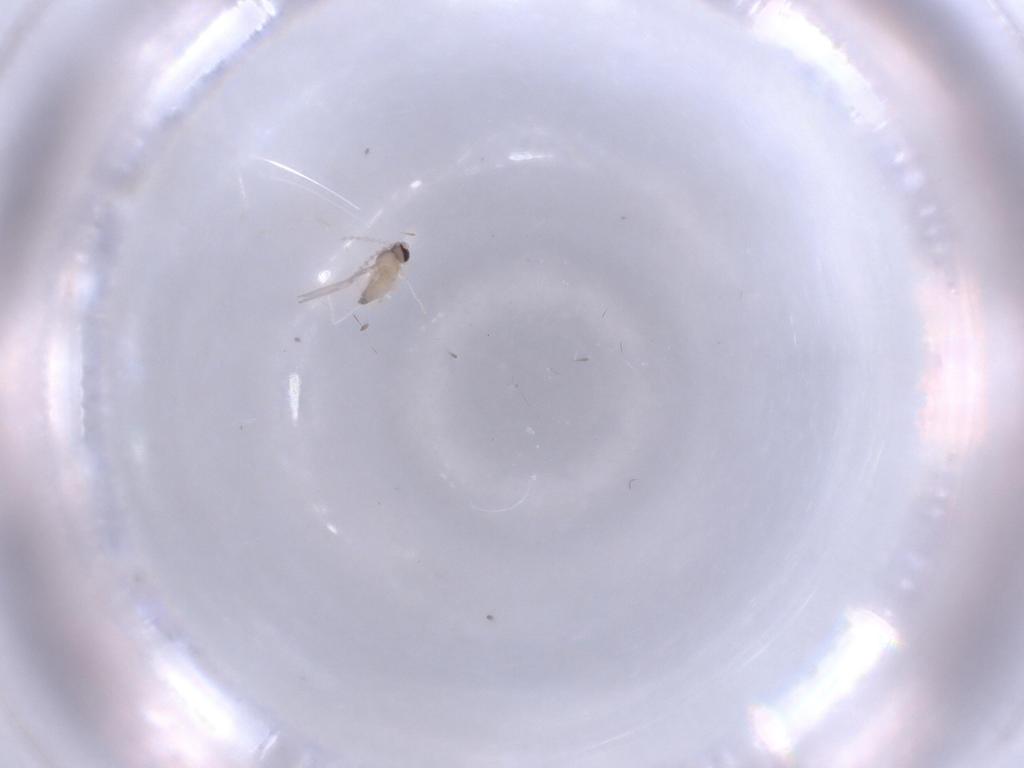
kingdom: Animalia
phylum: Arthropoda
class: Insecta
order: Diptera
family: Cecidomyiidae
